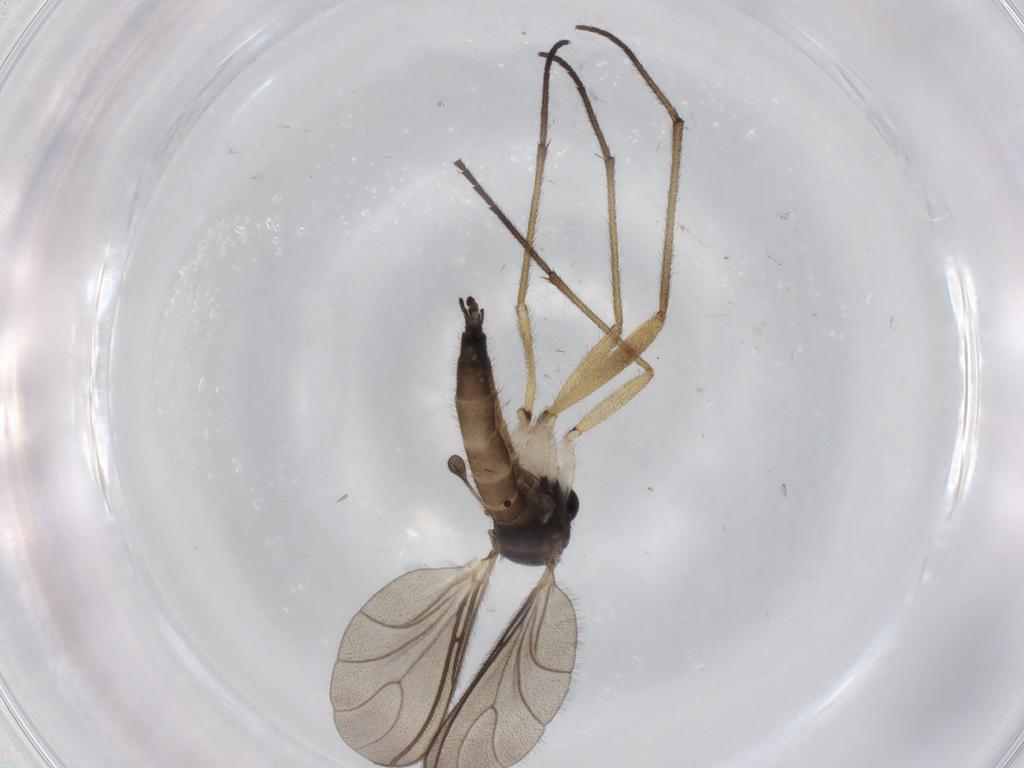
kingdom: Animalia
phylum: Arthropoda
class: Insecta
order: Diptera
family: Sciaridae
